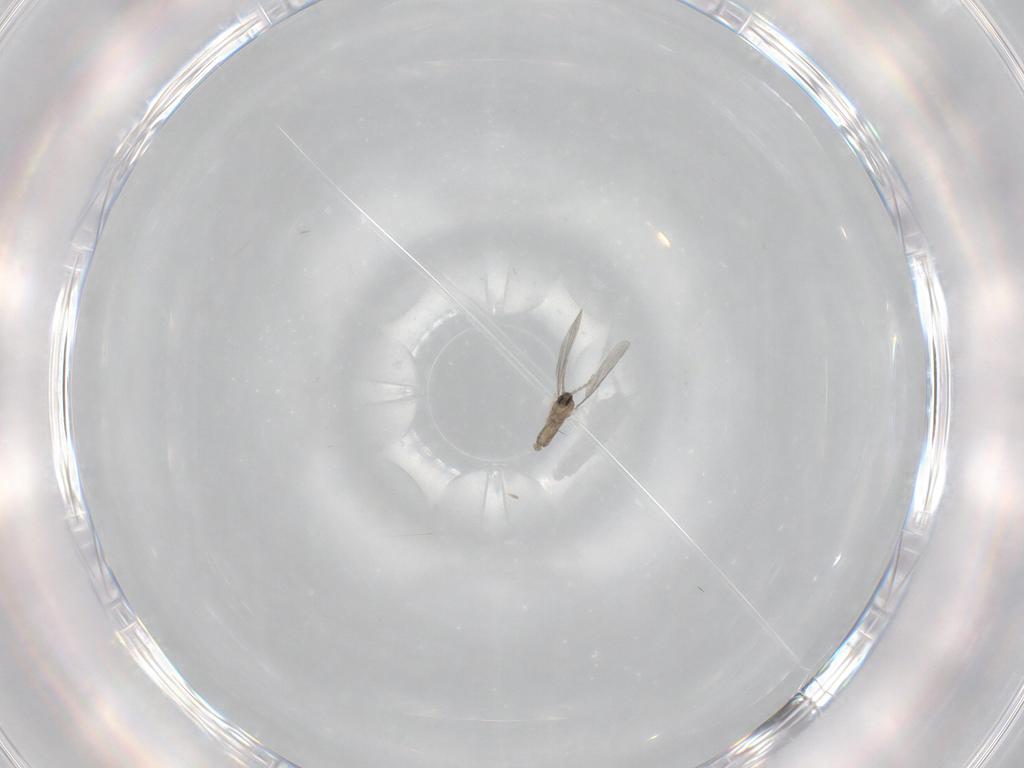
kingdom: Animalia
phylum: Arthropoda
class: Insecta
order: Diptera
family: Cecidomyiidae
